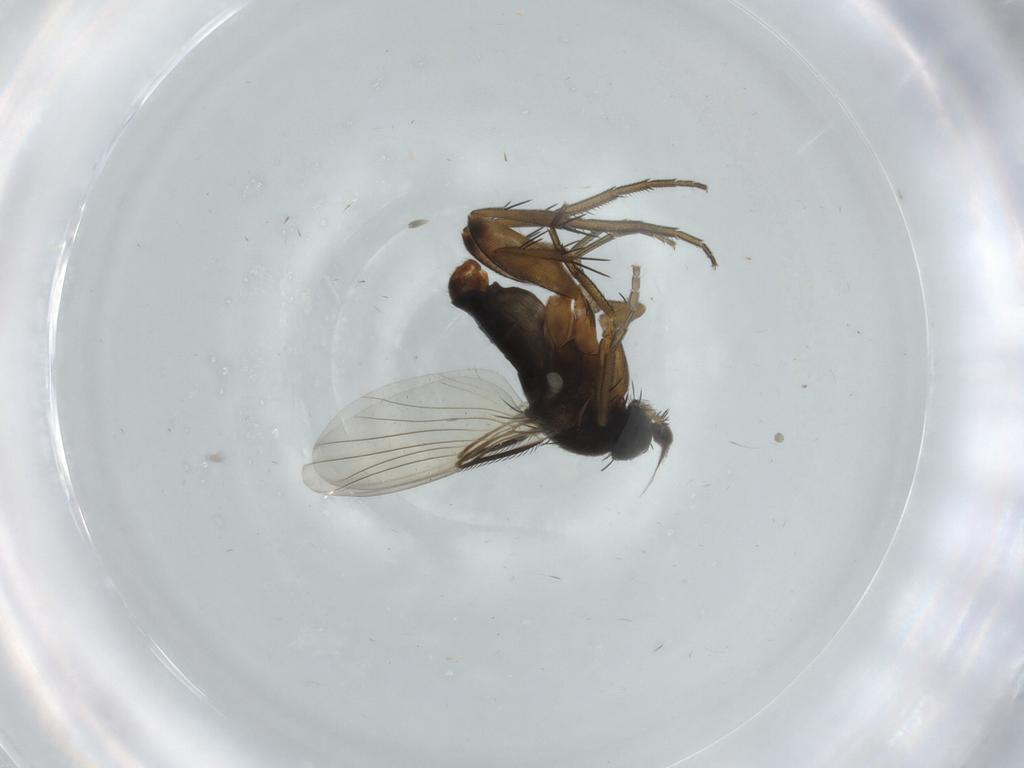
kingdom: Animalia
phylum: Arthropoda
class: Insecta
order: Diptera
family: Phoridae
